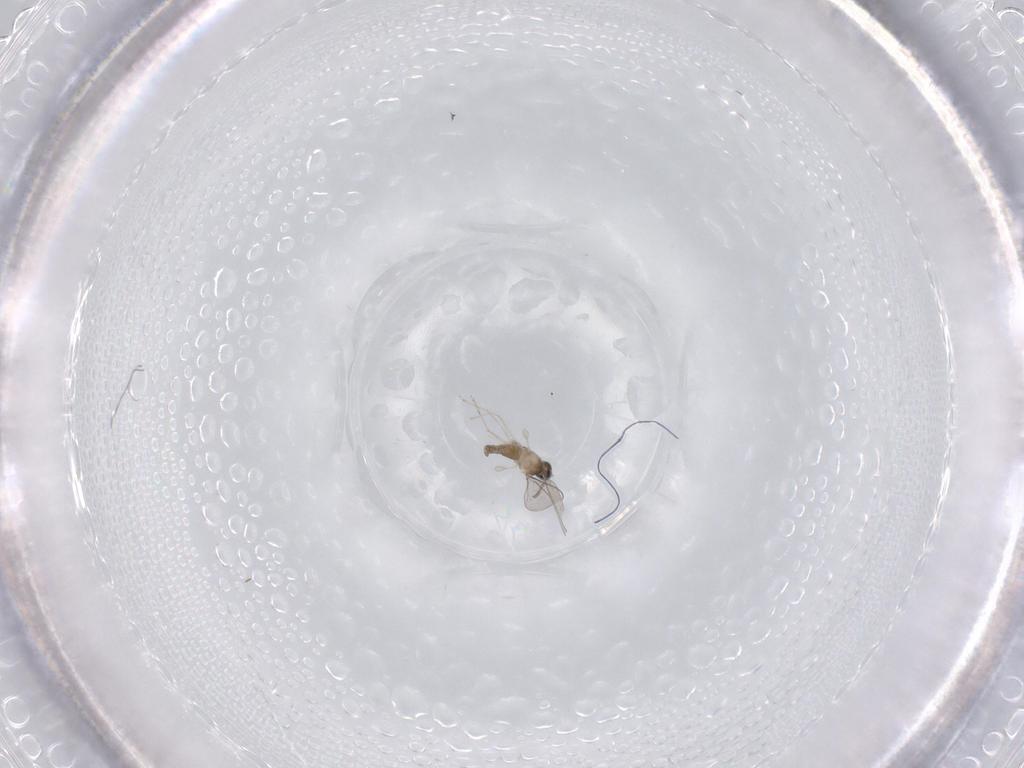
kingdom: Animalia
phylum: Arthropoda
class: Insecta
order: Diptera
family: Cecidomyiidae
